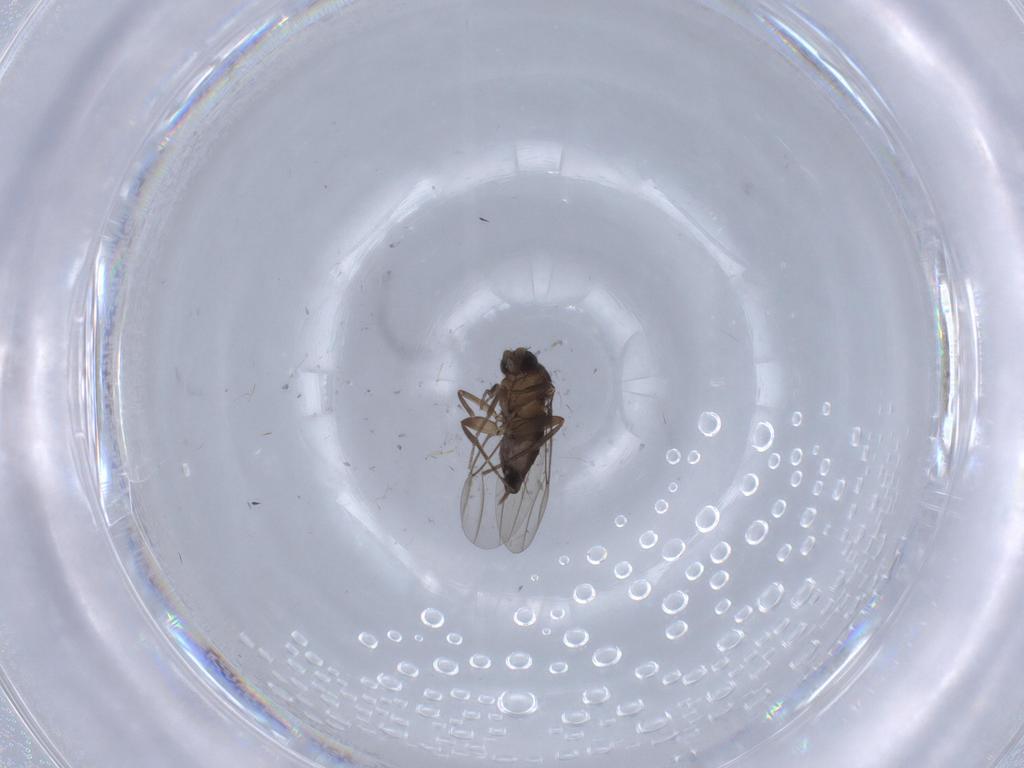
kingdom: Animalia
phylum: Arthropoda
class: Insecta
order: Diptera
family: Phoridae
